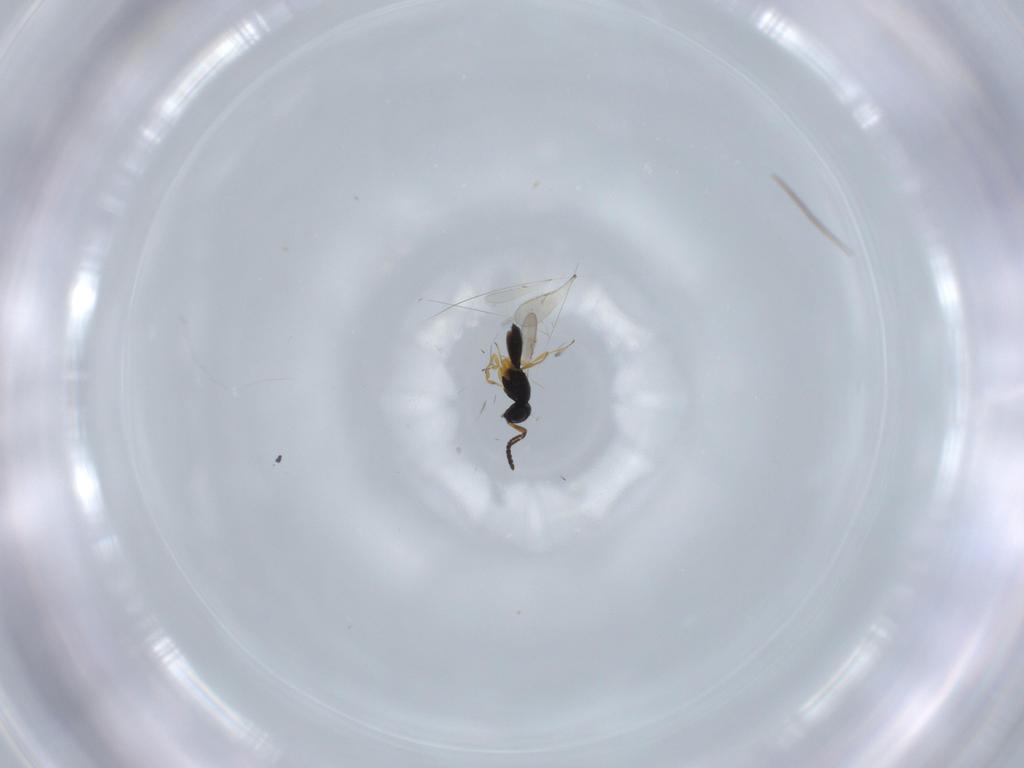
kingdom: Animalia
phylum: Arthropoda
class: Insecta
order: Hymenoptera
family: Scelionidae
